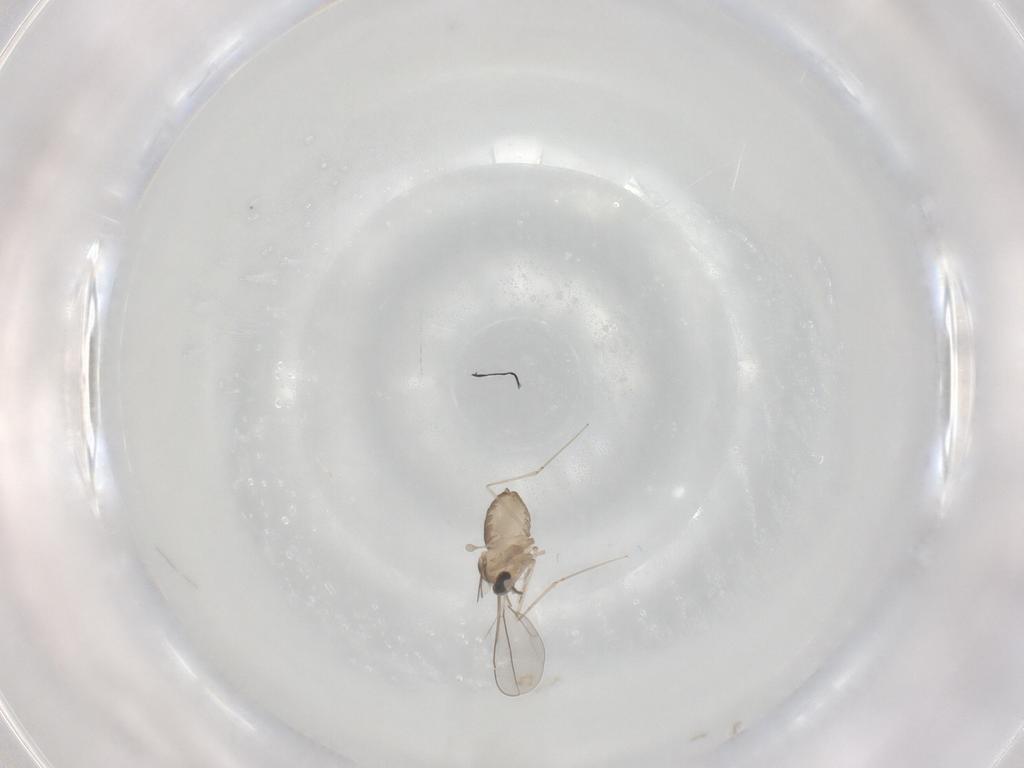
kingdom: Animalia
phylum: Arthropoda
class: Insecta
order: Diptera
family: Cecidomyiidae
